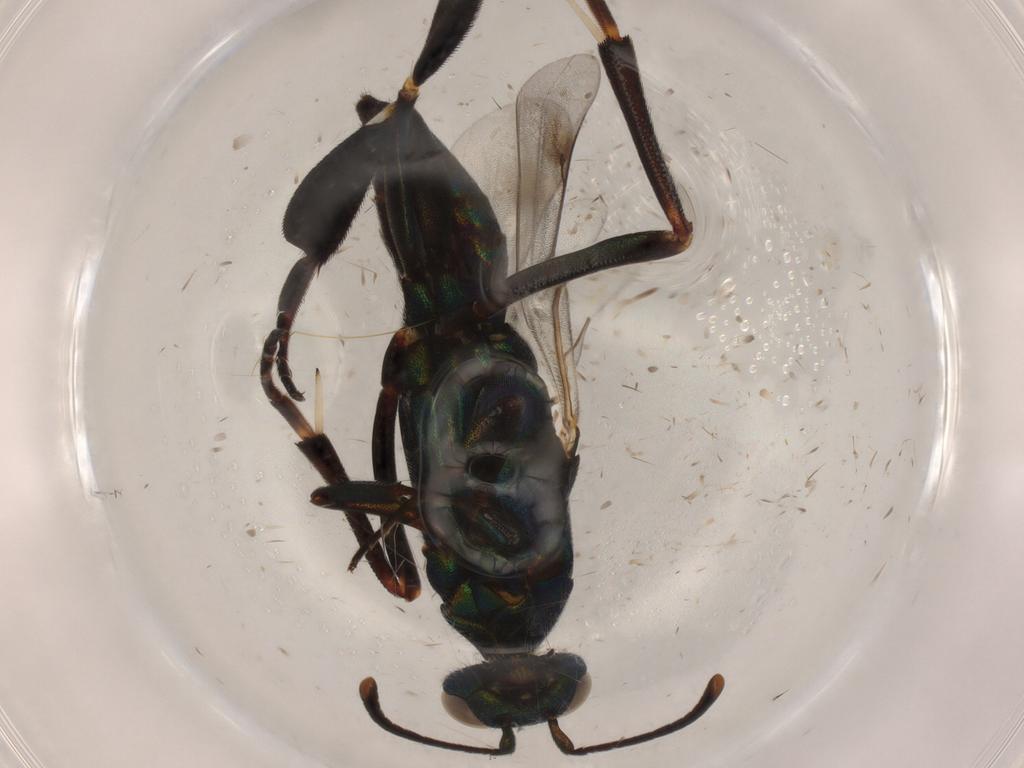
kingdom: Animalia
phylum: Arthropoda
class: Insecta
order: Hymenoptera
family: Eupelmidae
